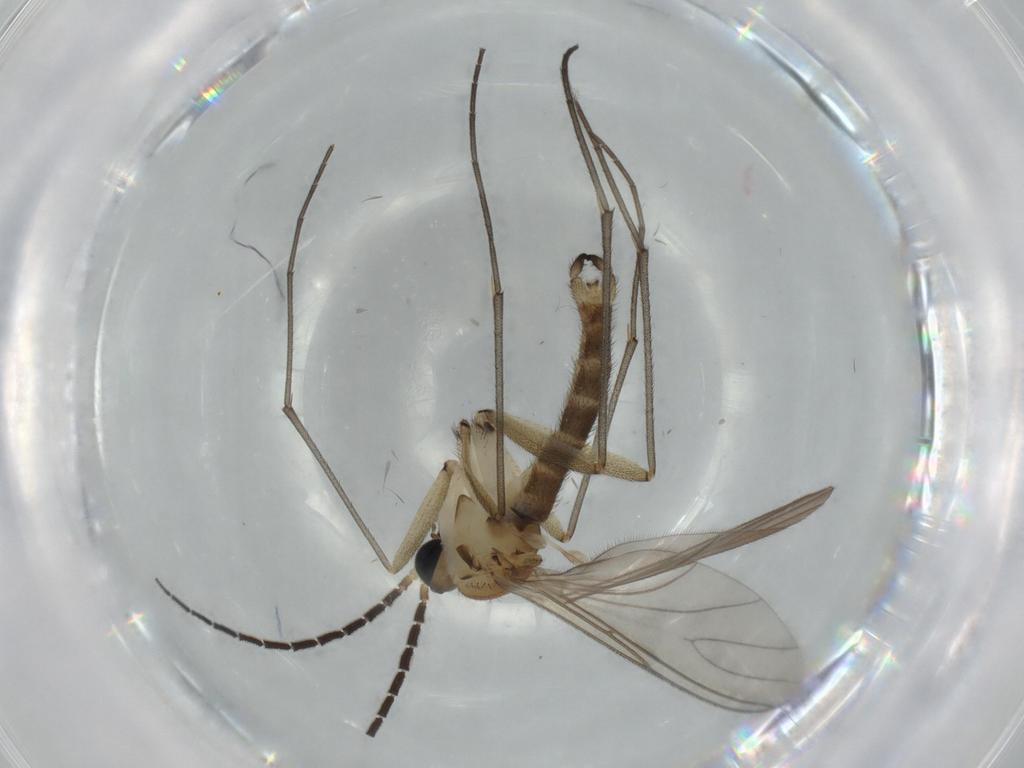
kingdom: Animalia
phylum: Arthropoda
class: Insecta
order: Diptera
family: Sciaridae
